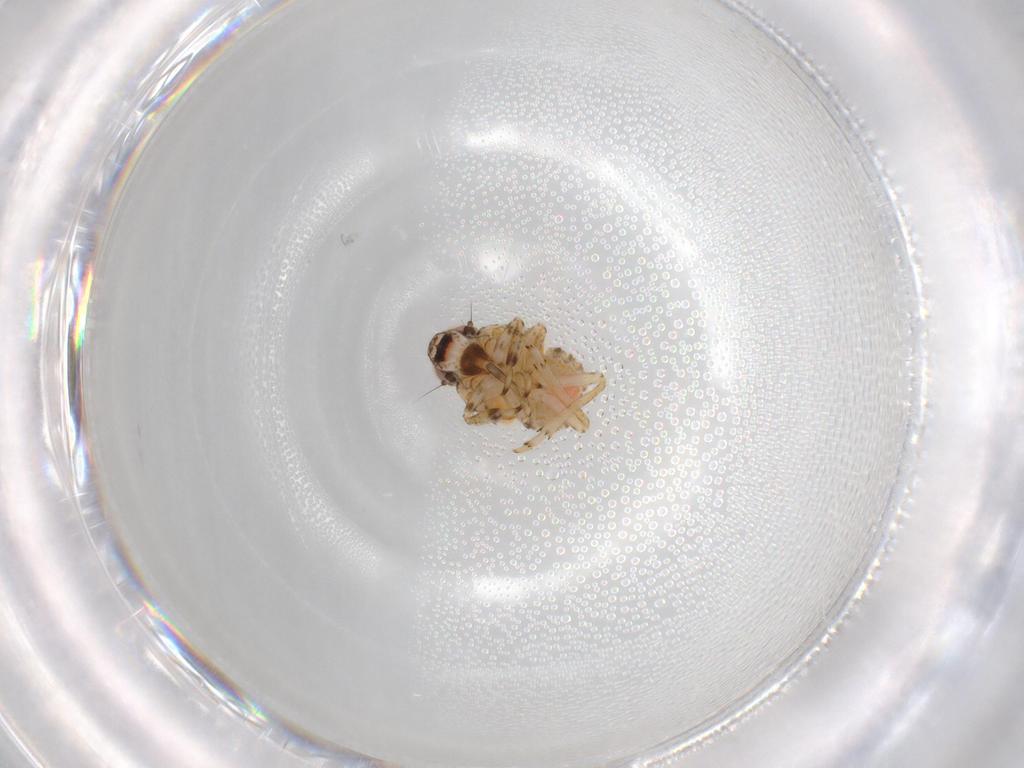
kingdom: Animalia
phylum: Arthropoda
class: Insecta
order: Hemiptera
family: Issidae
